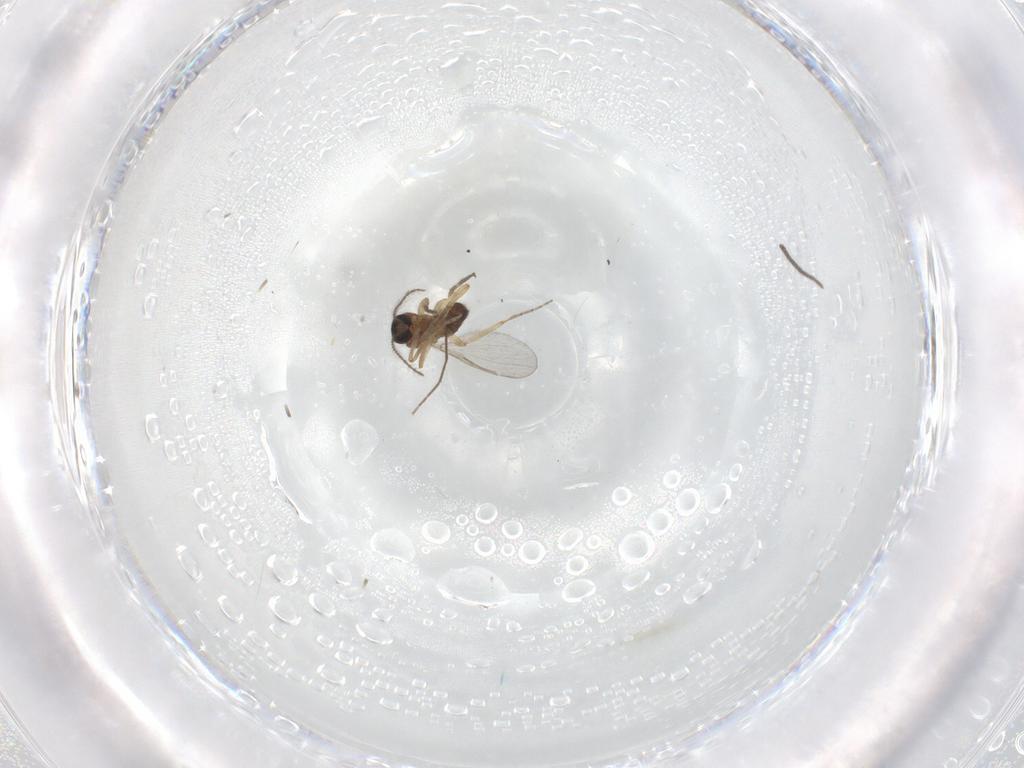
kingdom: Animalia
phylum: Arthropoda
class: Insecta
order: Diptera
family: Sciaridae
